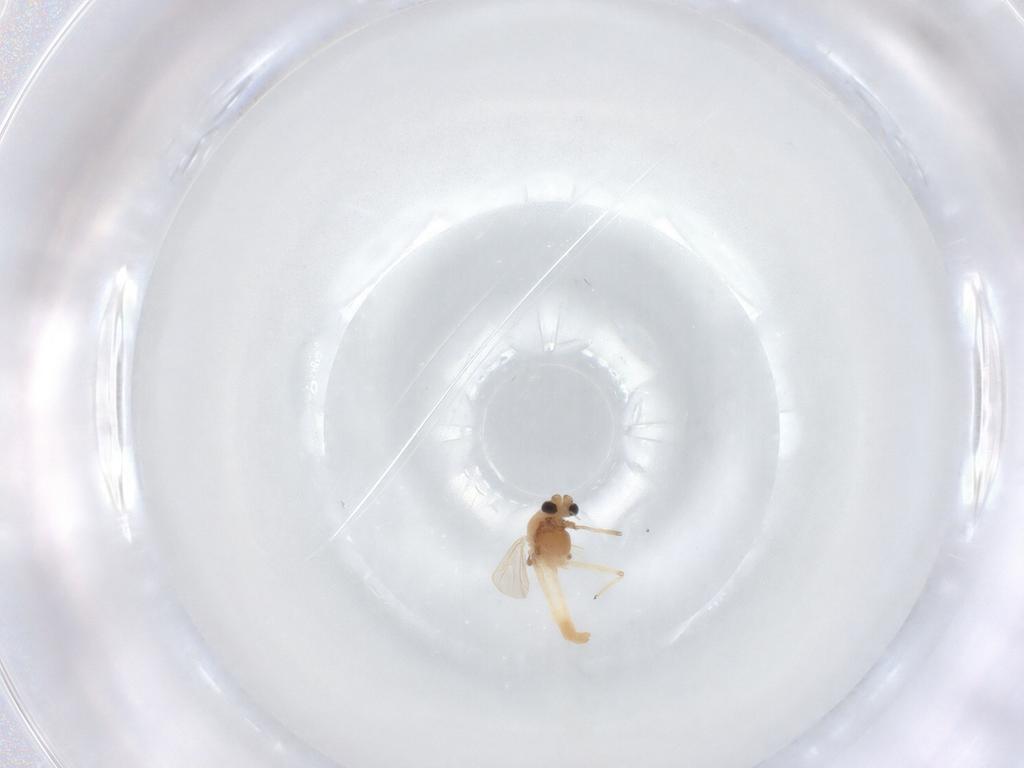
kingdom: Animalia
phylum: Arthropoda
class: Insecta
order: Diptera
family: Chironomidae
